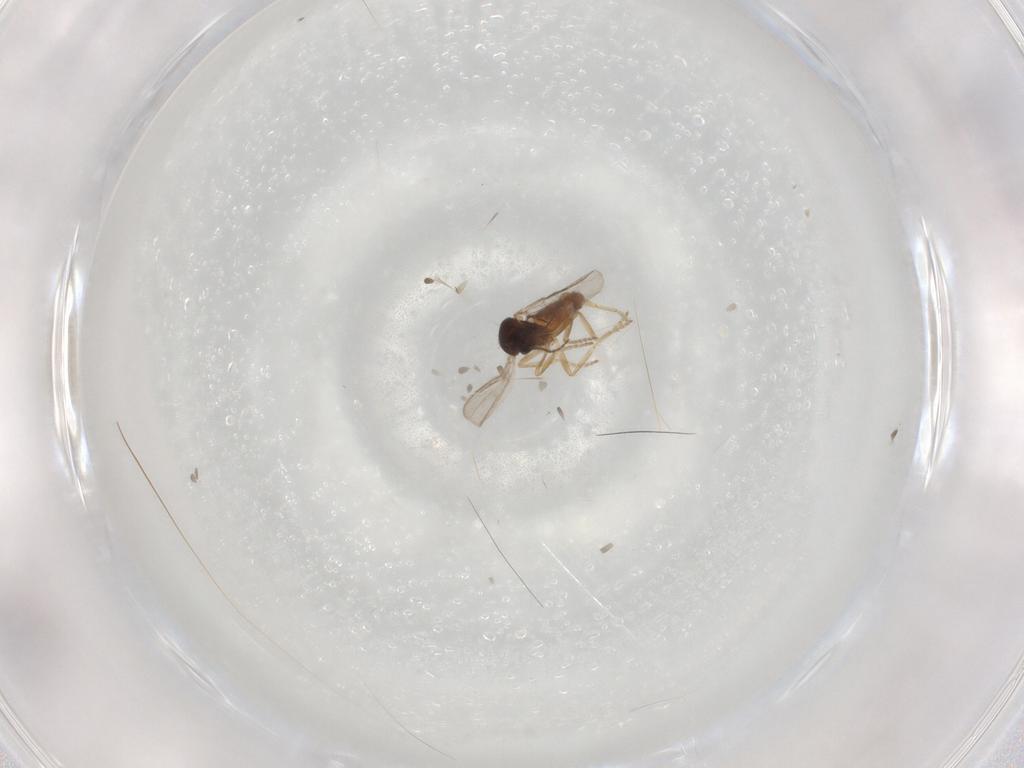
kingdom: Animalia
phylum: Arthropoda
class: Insecta
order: Diptera
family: Ceratopogonidae
